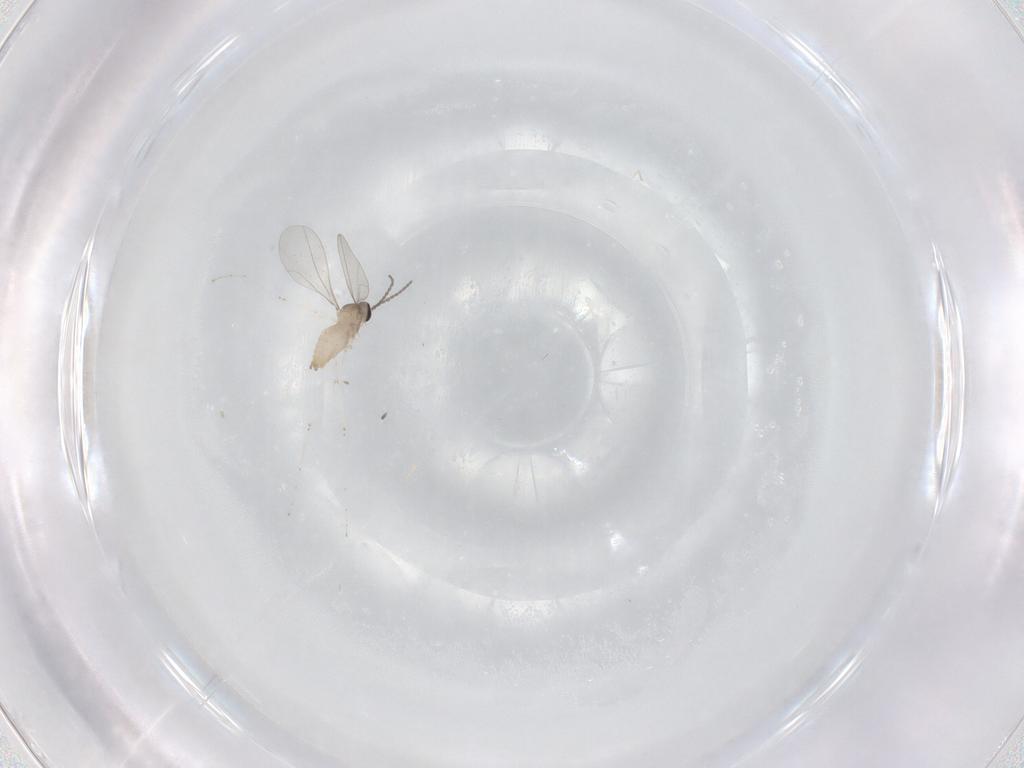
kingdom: Animalia
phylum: Arthropoda
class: Insecta
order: Diptera
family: Cecidomyiidae
